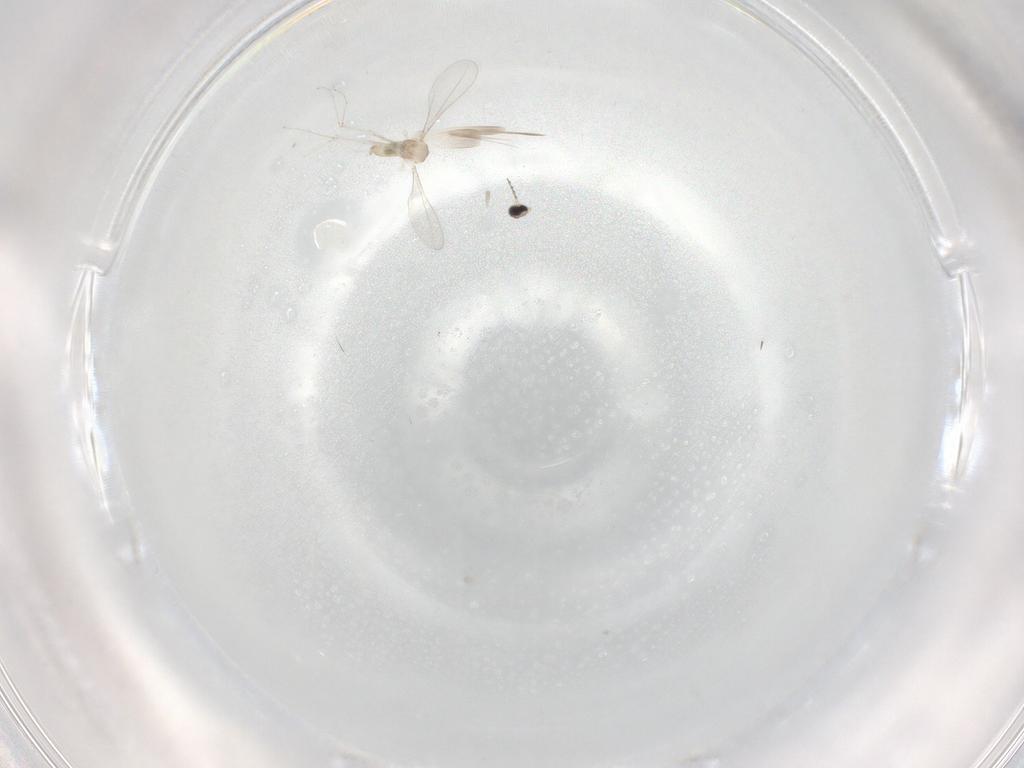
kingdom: Animalia
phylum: Arthropoda
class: Insecta
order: Diptera
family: Cecidomyiidae
